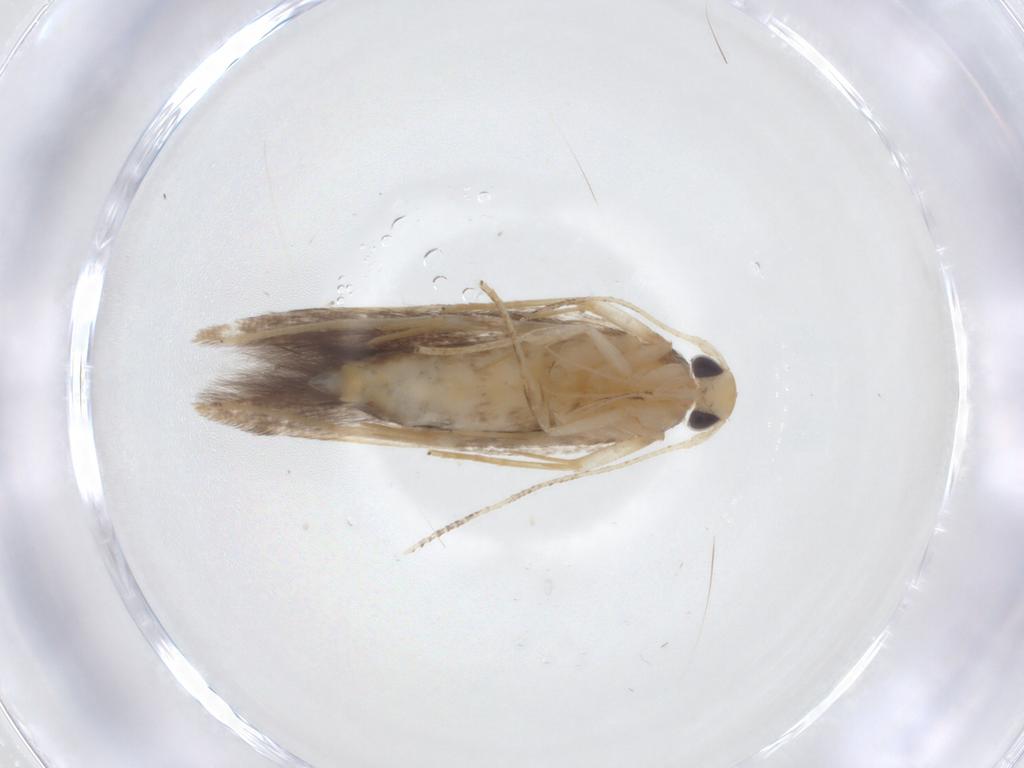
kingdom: Animalia
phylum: Arthropoda
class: Insecta
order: Lepidoptera
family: Cosmopterigidae
